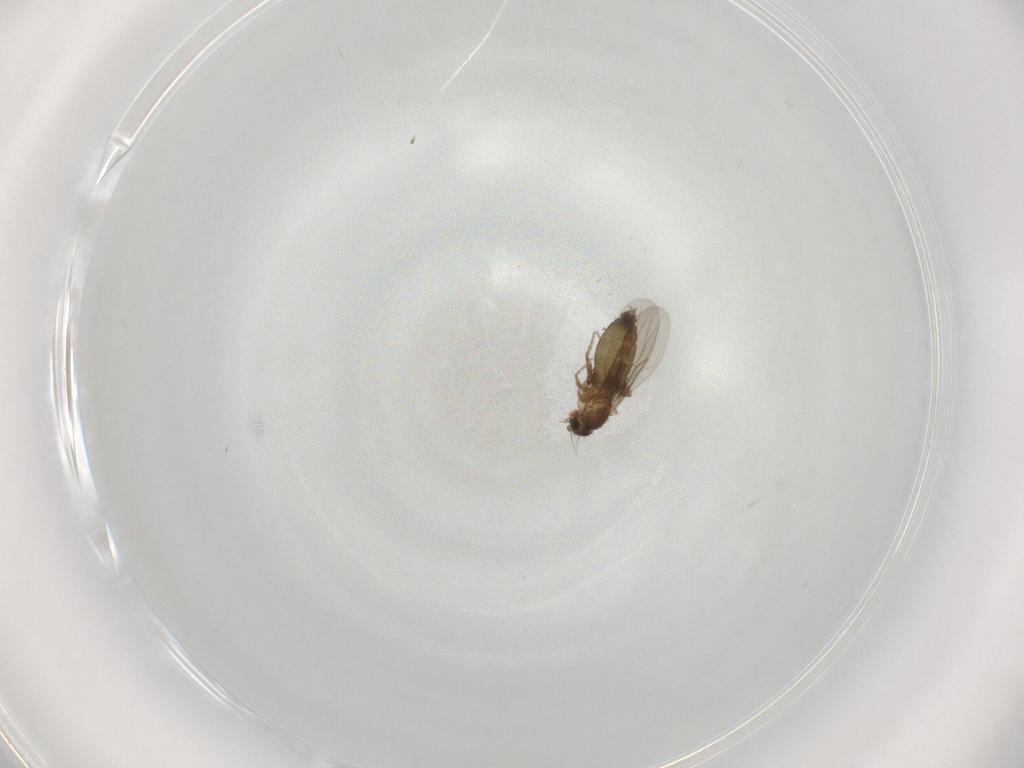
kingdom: Animalia
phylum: Arthropoda
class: Insecta
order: Diptera
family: Phoridae
